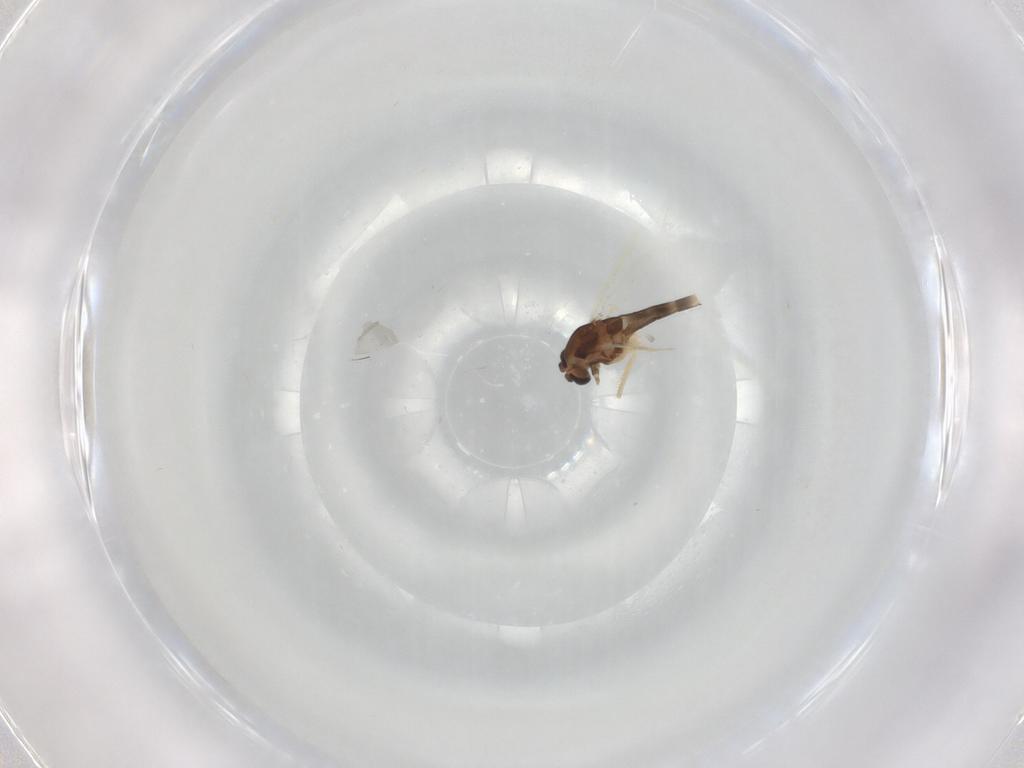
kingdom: Animalia
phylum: Arthropoda
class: Insecta
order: Diptera
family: Chironomidae
